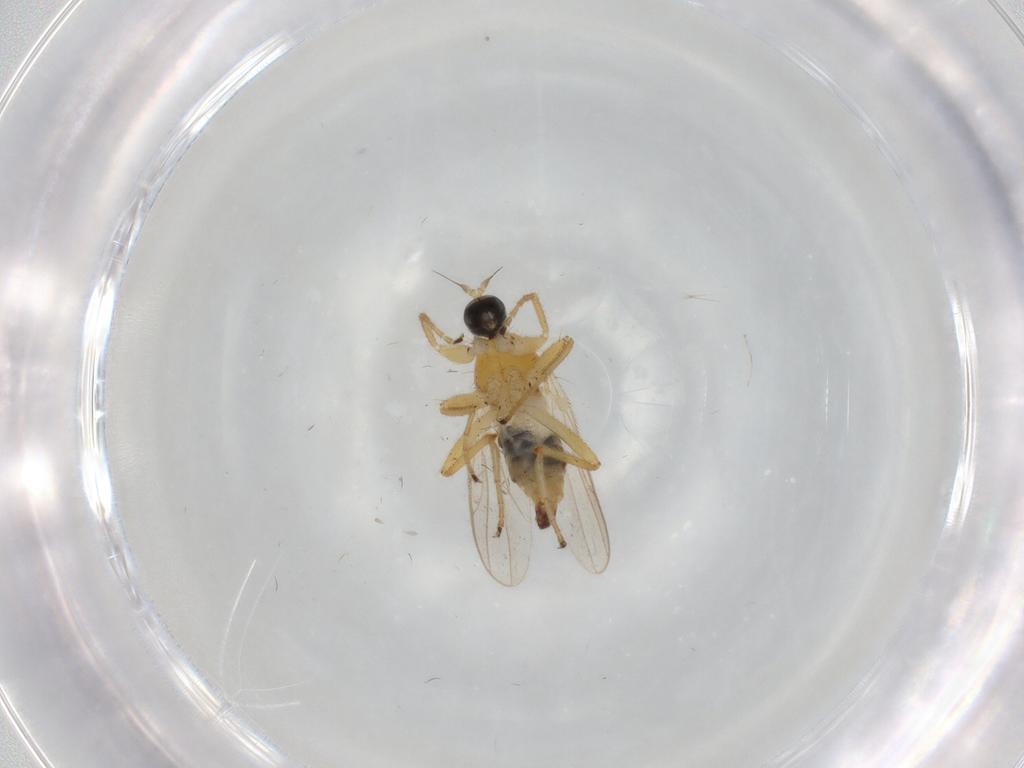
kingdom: Animalia
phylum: Arthropoda
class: Insecta
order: Diptera
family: Hybotidae
